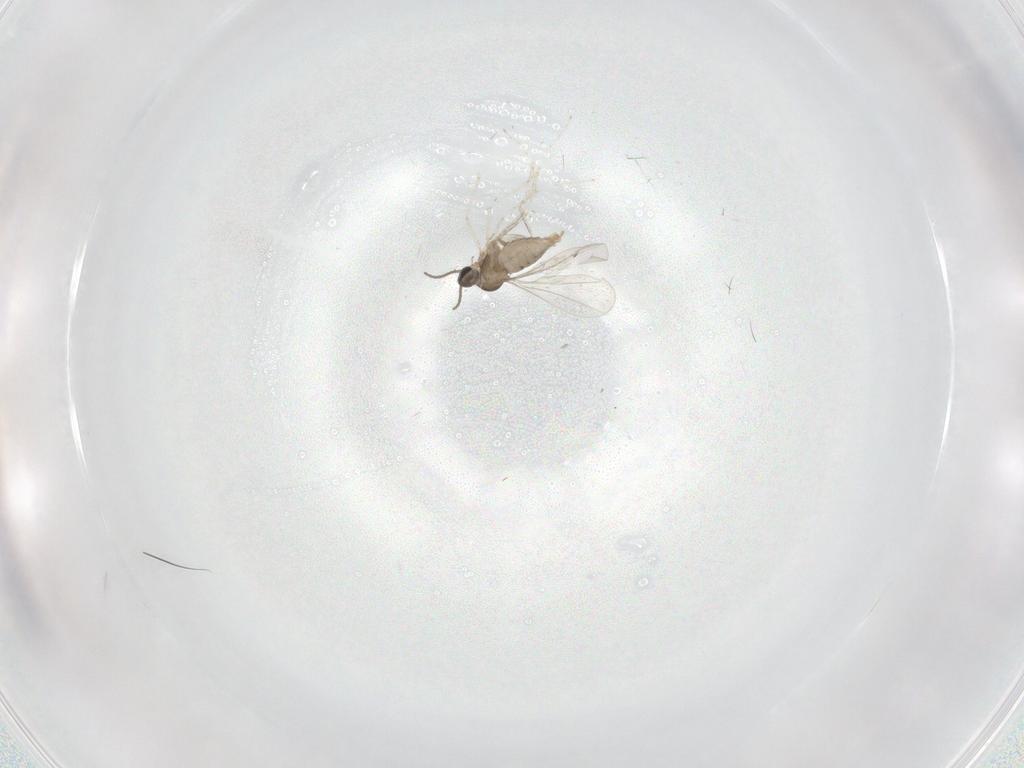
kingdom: Animalia
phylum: Arthropoda
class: Insecta
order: Diptera
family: Cecidomyiidae
